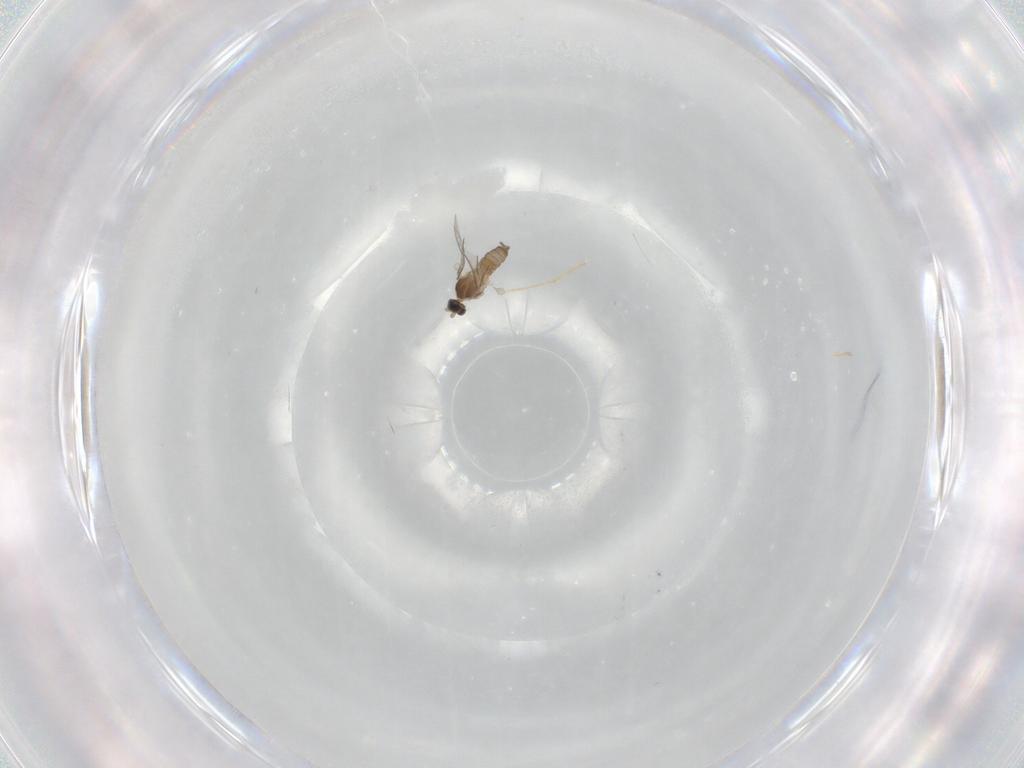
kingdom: Animalia
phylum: Arthropoda
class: Insecta
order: Diptera
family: Cecidomyiidae
